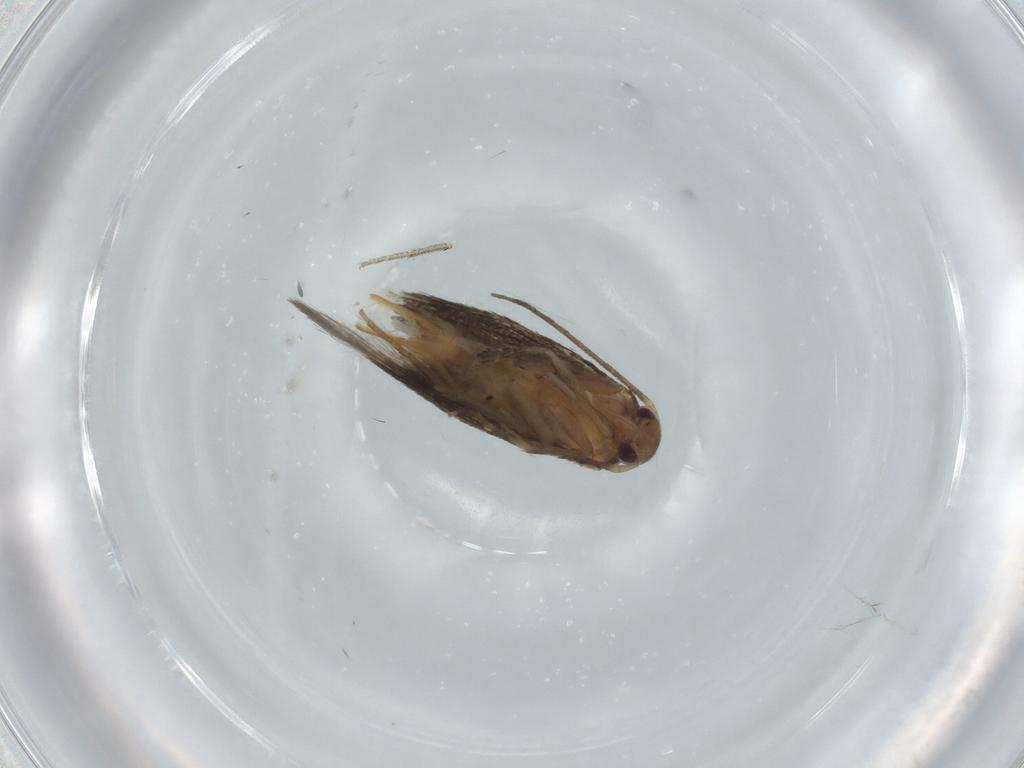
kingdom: Animalia
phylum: Arthropoda
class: Insecta
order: Lepidoptera
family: Elachistidae
